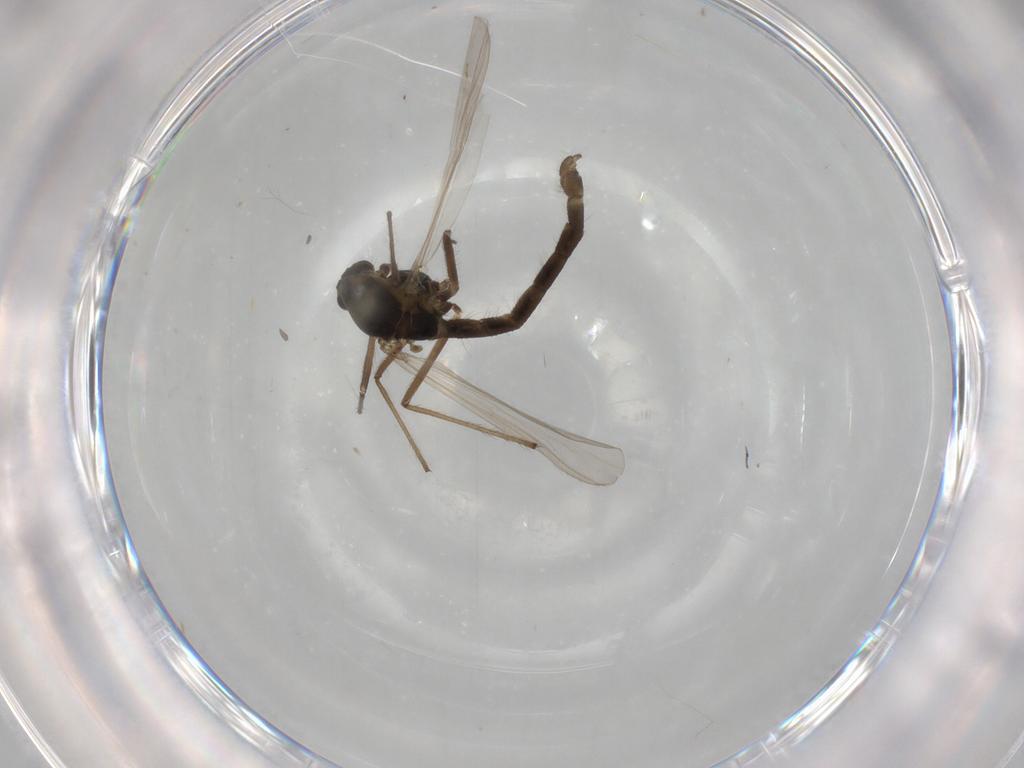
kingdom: Animalia
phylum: Arthropoda
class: Insecta
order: Diptera
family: Chironomidae
